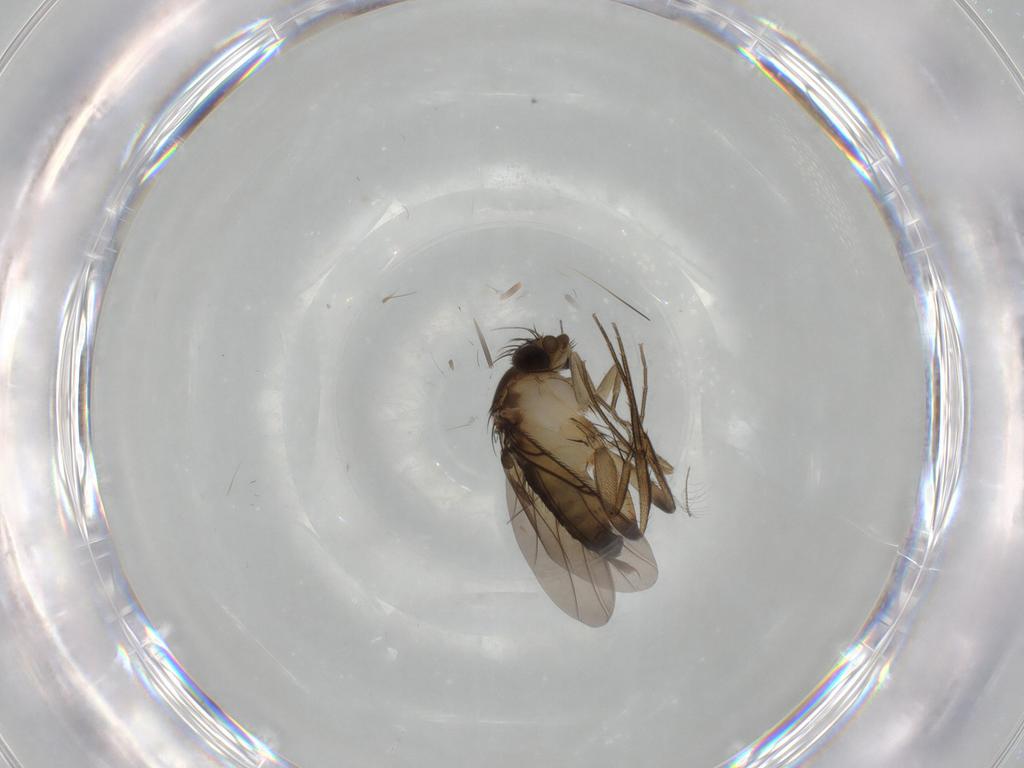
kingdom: Animalia
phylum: Arthropoda
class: Insecta
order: Diptera
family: Phoridae
